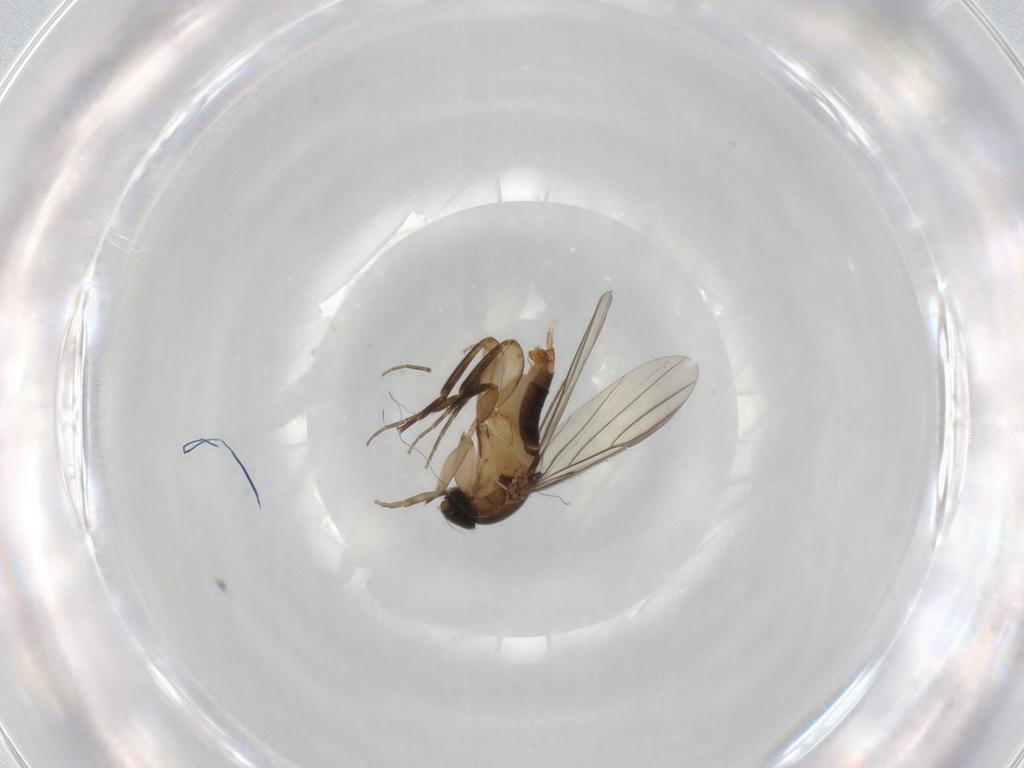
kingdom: Animalia
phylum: Arthropoda
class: Insecta
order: Diptera
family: Phoridae
